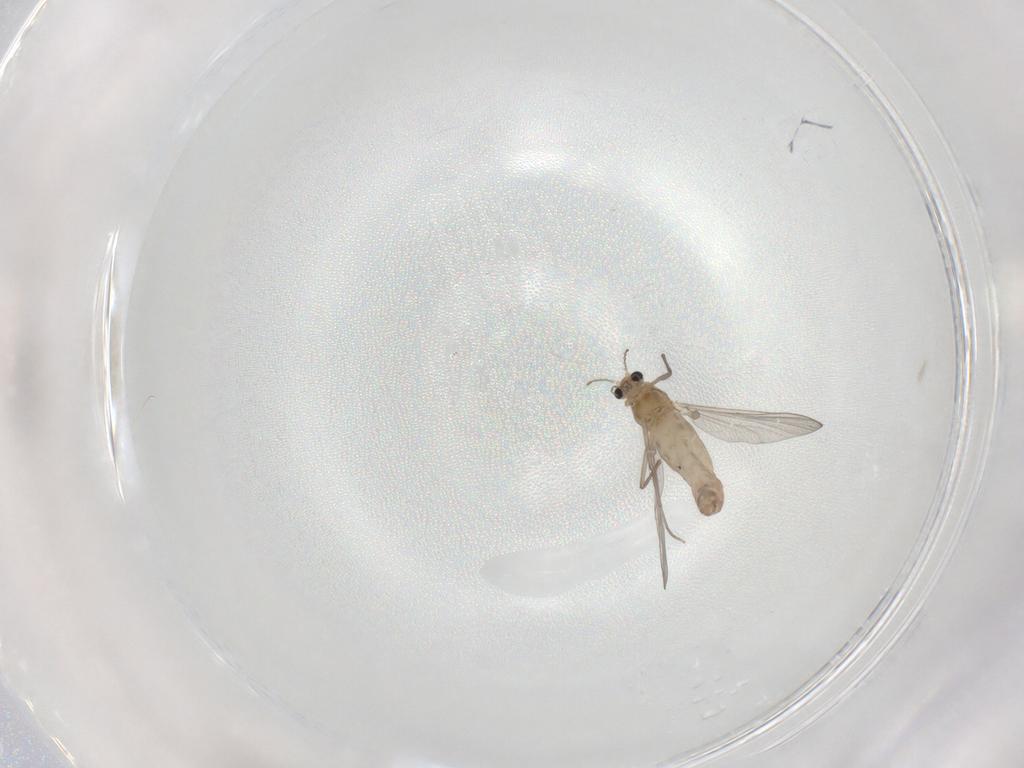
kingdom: Animalia
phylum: Arthropoda
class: Insecta
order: Diptera
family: Chironomidae
